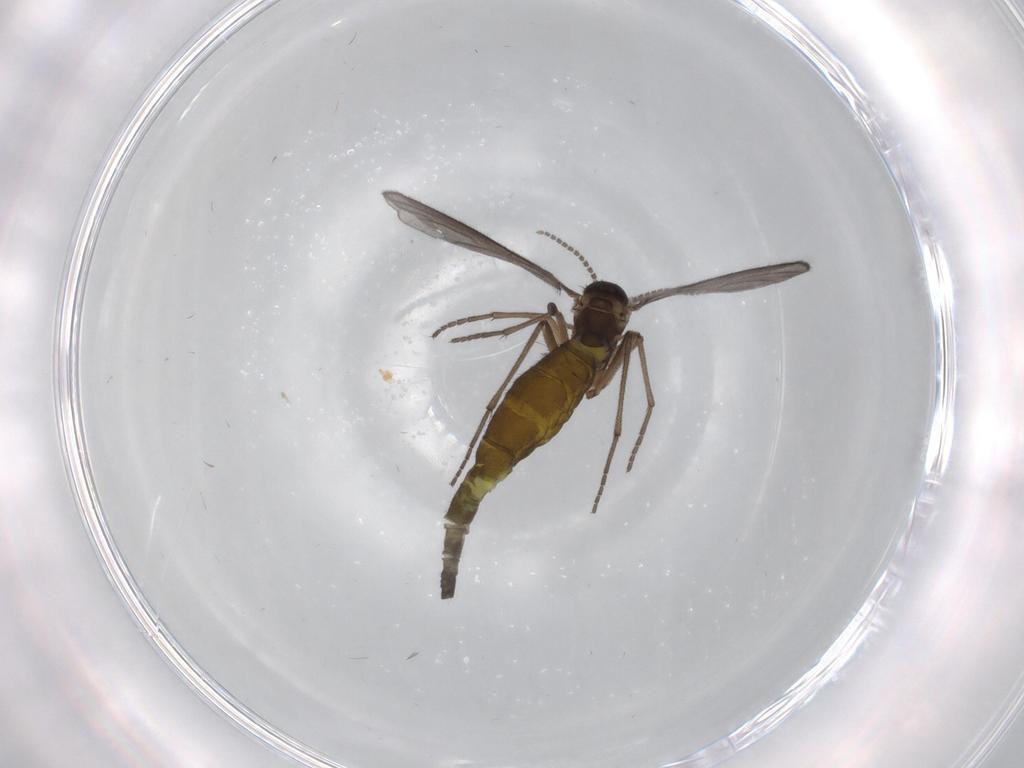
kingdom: Animalia
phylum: Arthropoda
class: Insecta
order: Diptera
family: Sciaridae
